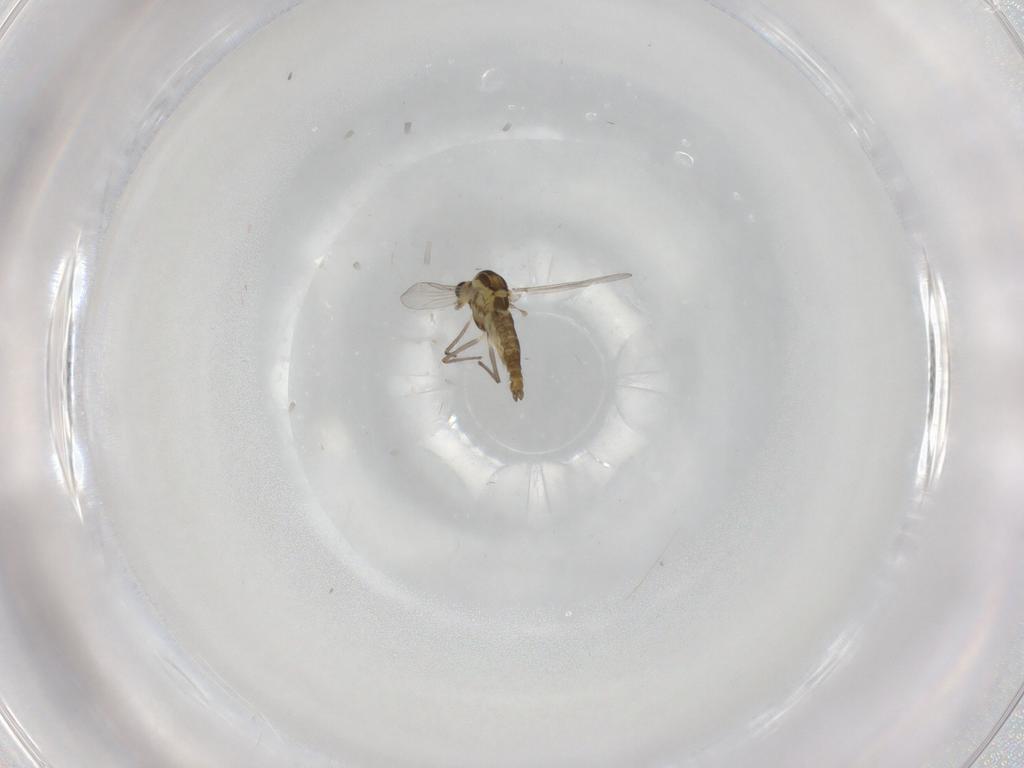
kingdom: Animalia
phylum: Arthropoda
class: Insecta
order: Diptera
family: Chironomidae
